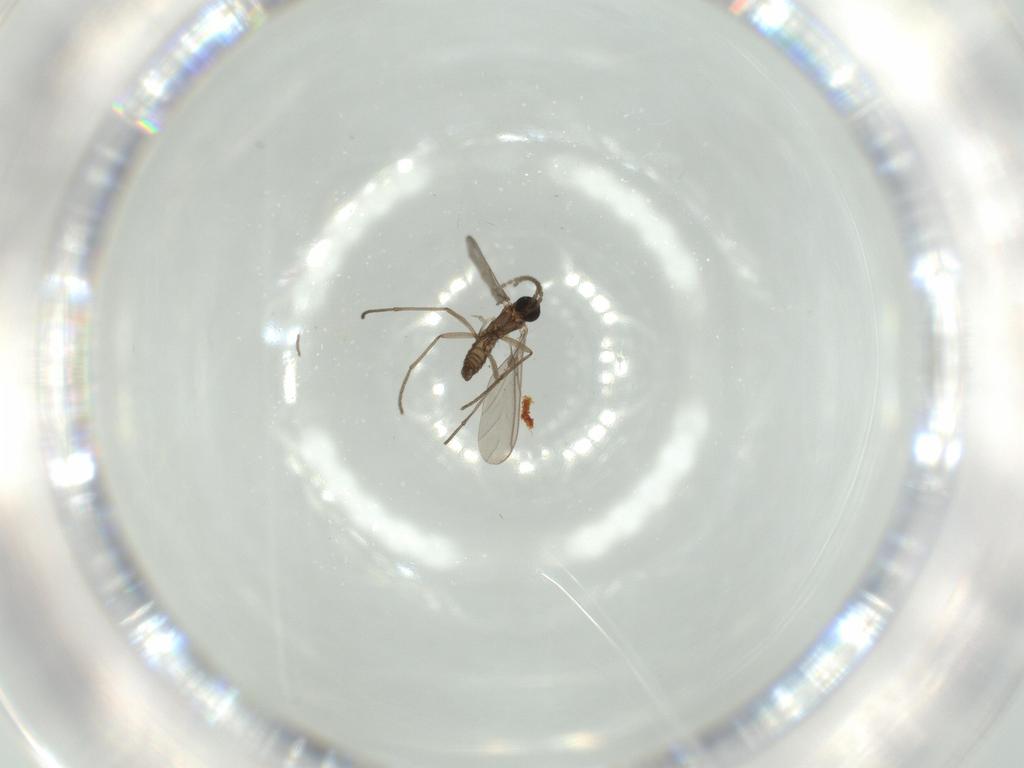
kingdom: Animalia
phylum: Arthropoda
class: Insecta
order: Diptera
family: Sciaridae
